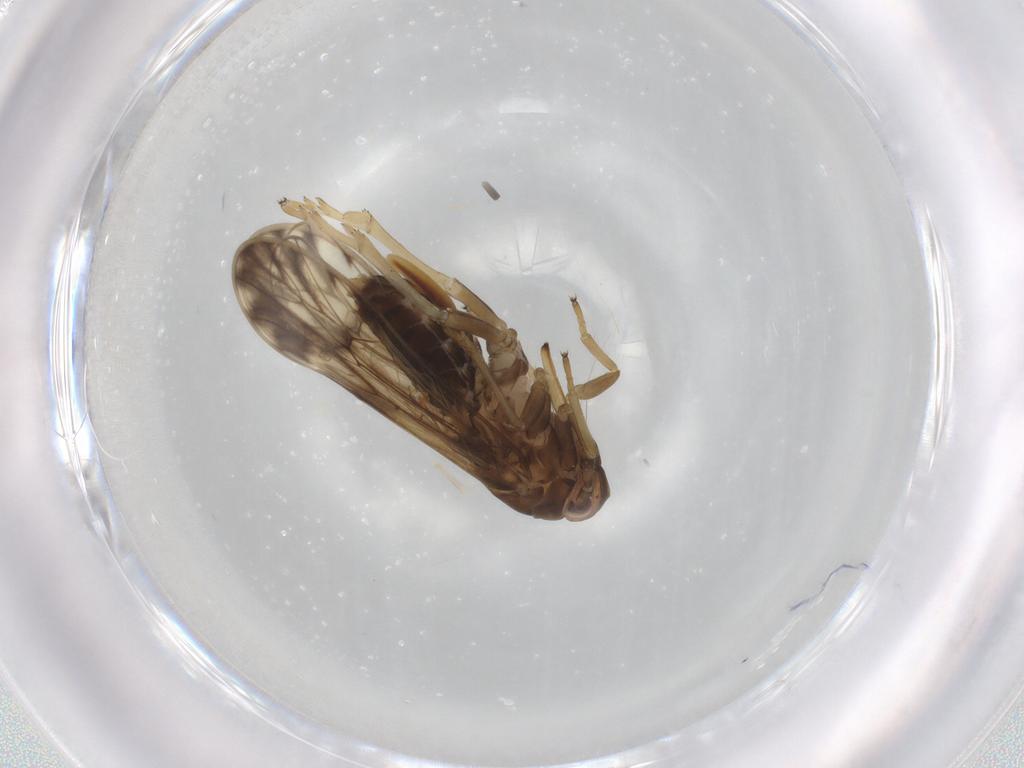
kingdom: Animalia
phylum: Arthropoda
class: Insecta
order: Hemiptera
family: Delphacidae
